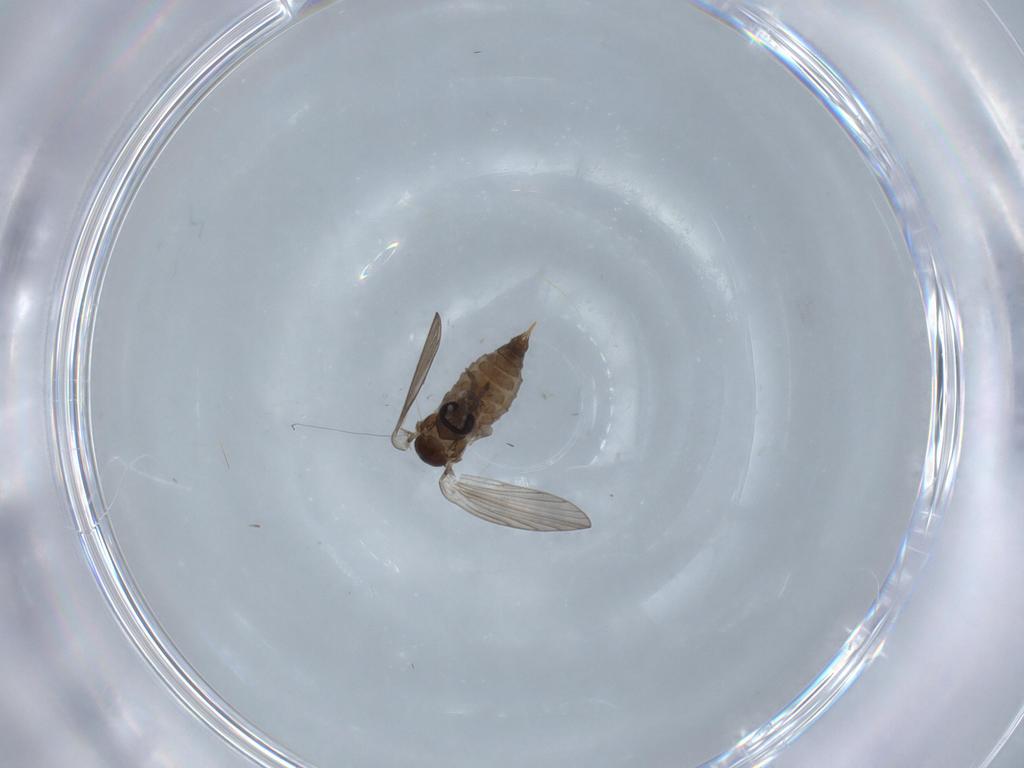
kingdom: Animalia
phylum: Arthropoda
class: Insecta
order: Diptera
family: Psychodidae
